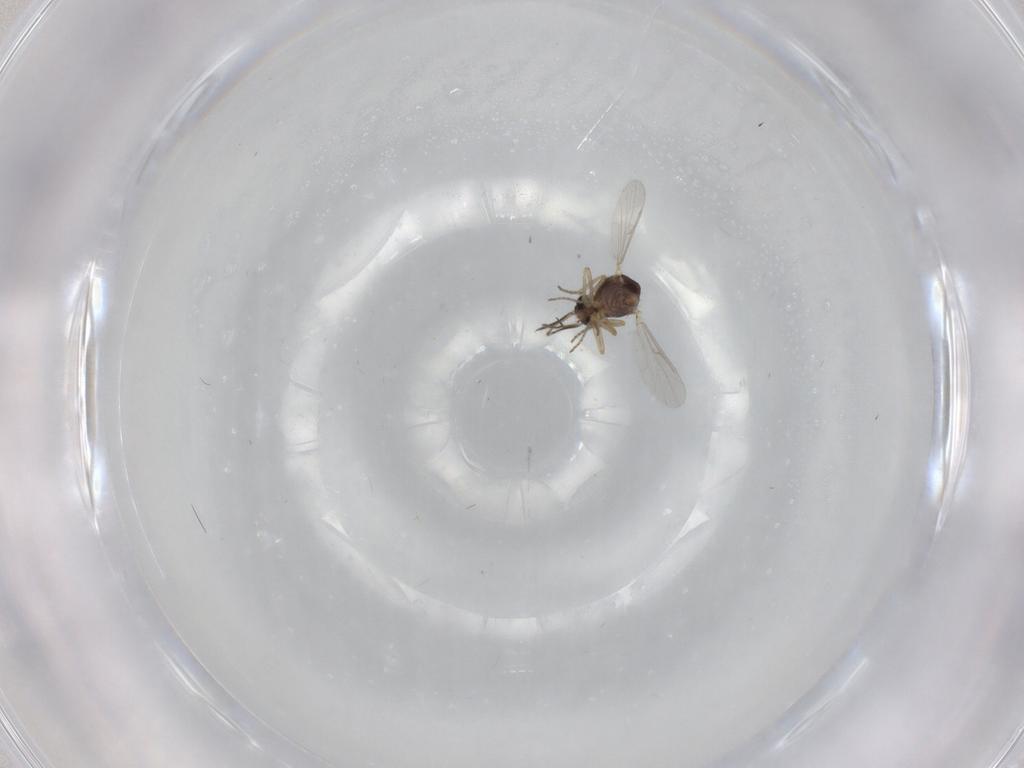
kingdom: Animalia
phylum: Arthropoda
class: Insecta
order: Diptera
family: Ceratopogonidae
